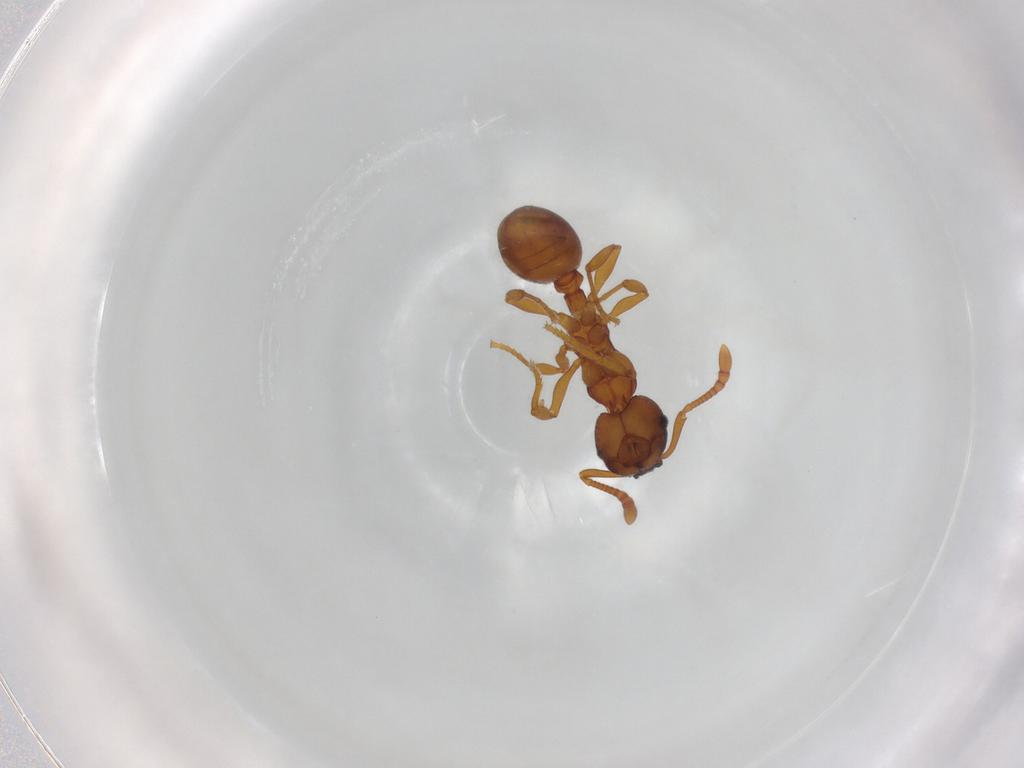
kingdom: Animalia
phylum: Arthropoda
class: Insecta
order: Hymenoptera
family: Formicidae
